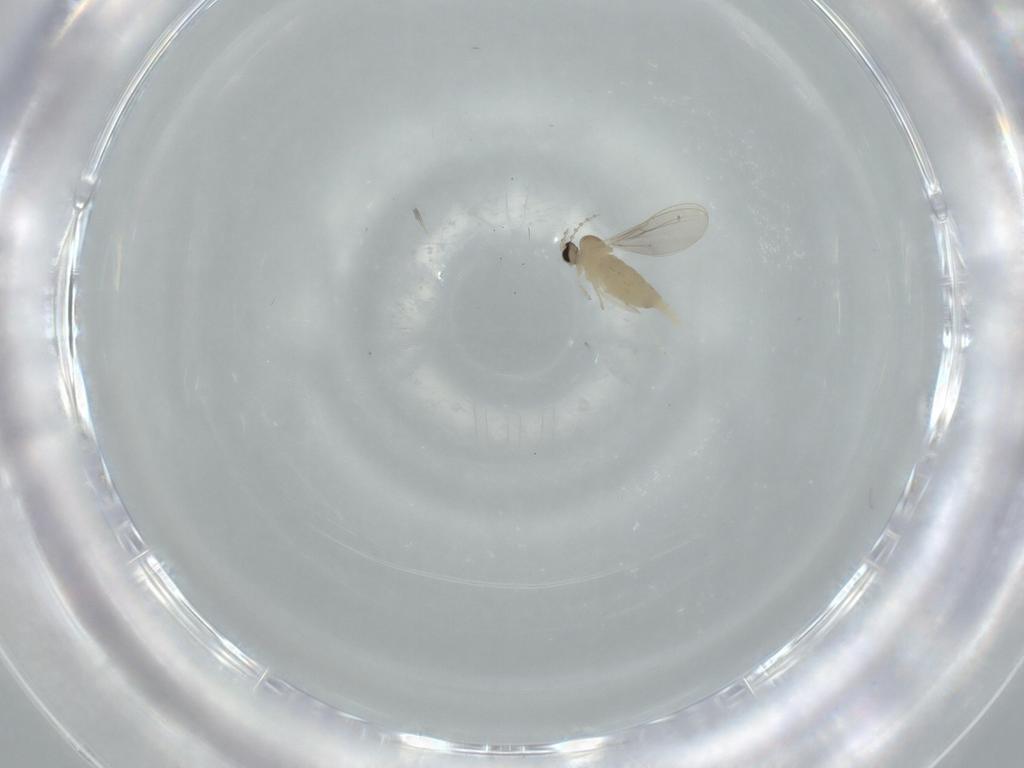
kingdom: Animalia
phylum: Arthropoda
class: Insecta
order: Diptera
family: Cecidomyiidae
